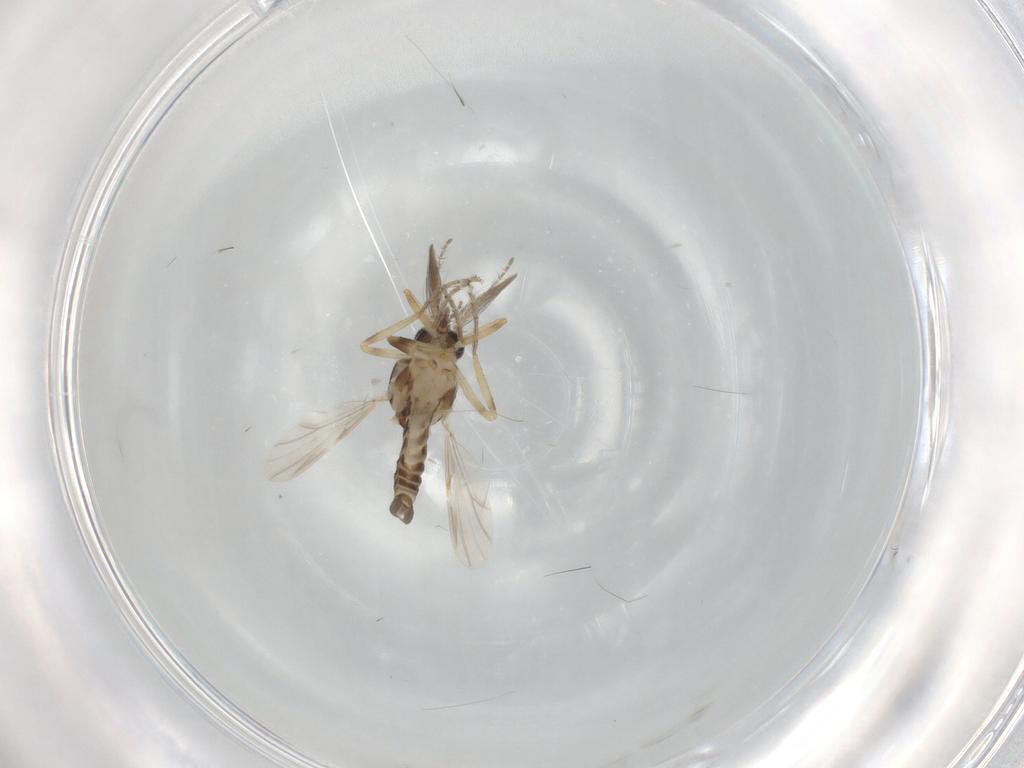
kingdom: Animalia
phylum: Arthropoda
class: Insecta
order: Diptera
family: Ceratopogonidae
